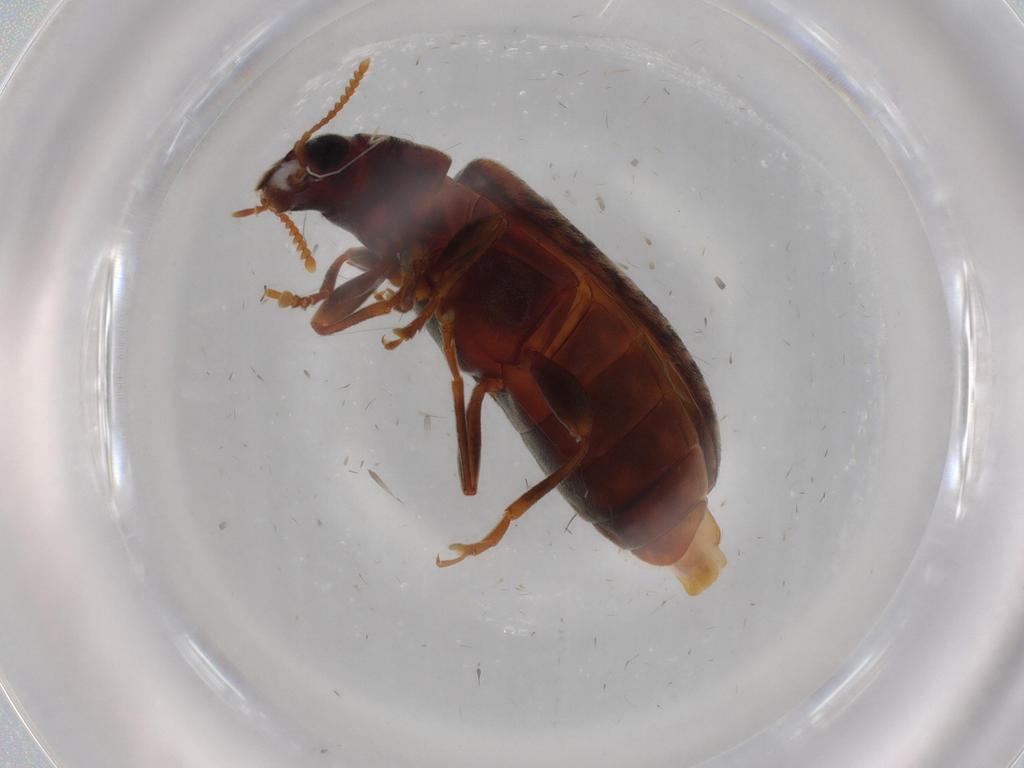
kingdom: Animalia
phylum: Arthropoda
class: Insecta
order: Coleoptera
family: Mycteridae
